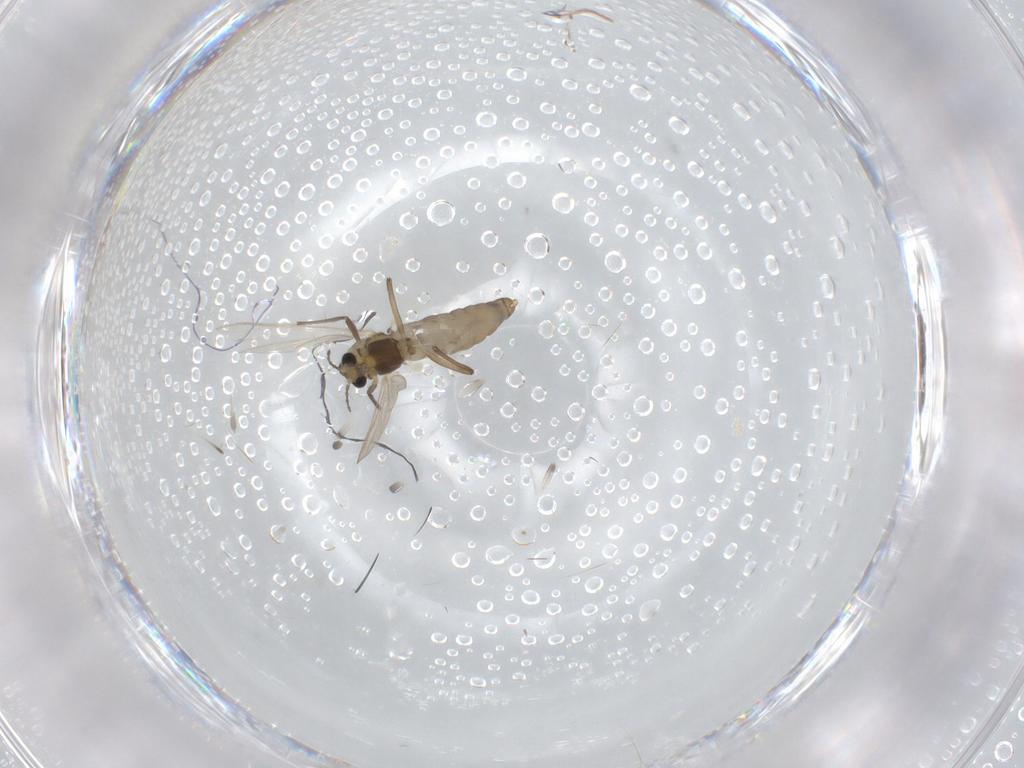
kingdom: Animalia
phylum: Arthropoda
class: Insecta
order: Diptera
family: Chironomidae
